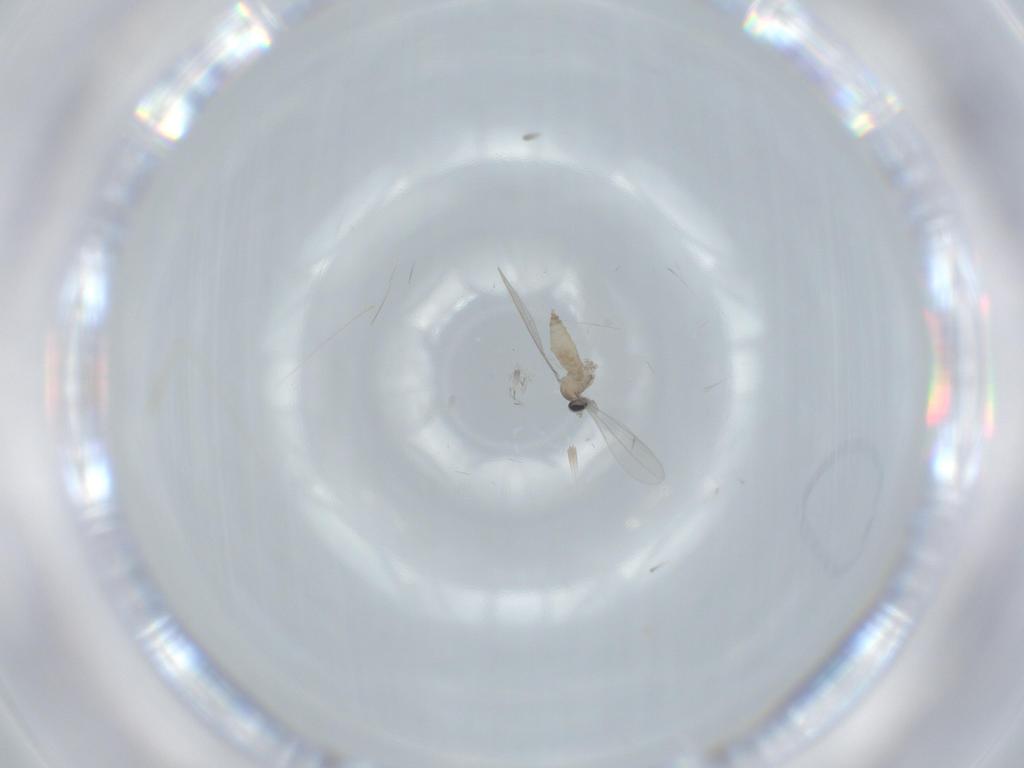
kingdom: Animalia
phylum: Arthropoda
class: Insecta
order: Diptera
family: Cecidomyiidae
